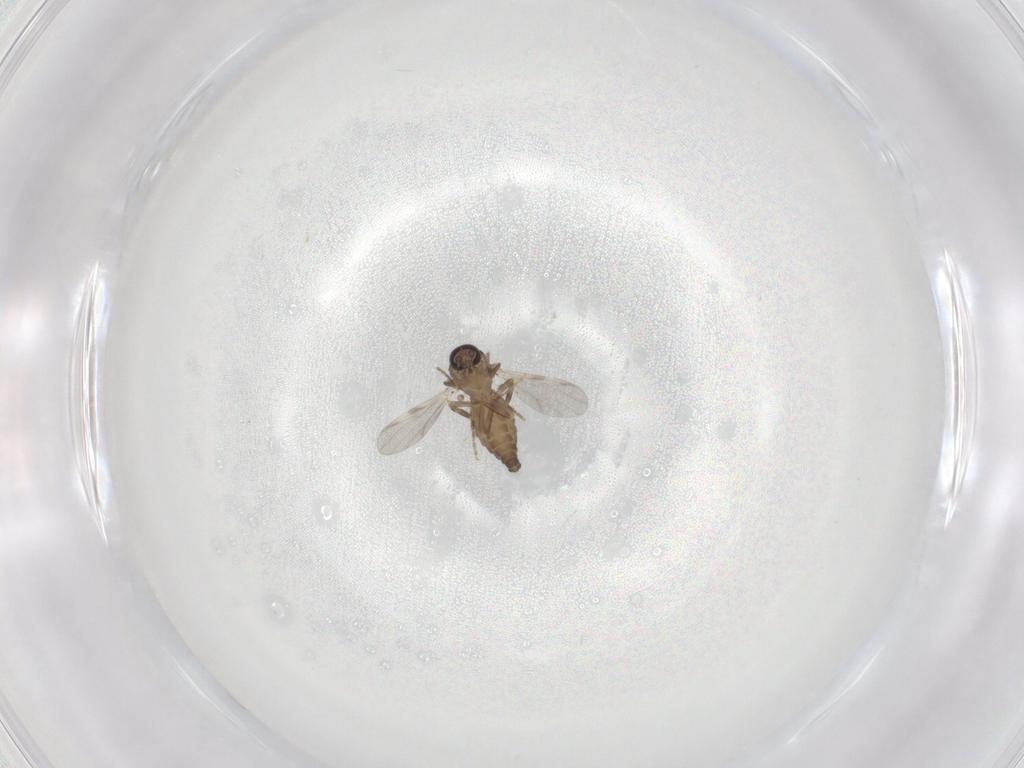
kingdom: Animalia
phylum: Arthropoda
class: Insecta
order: Diptera
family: Ceratopogonidae
